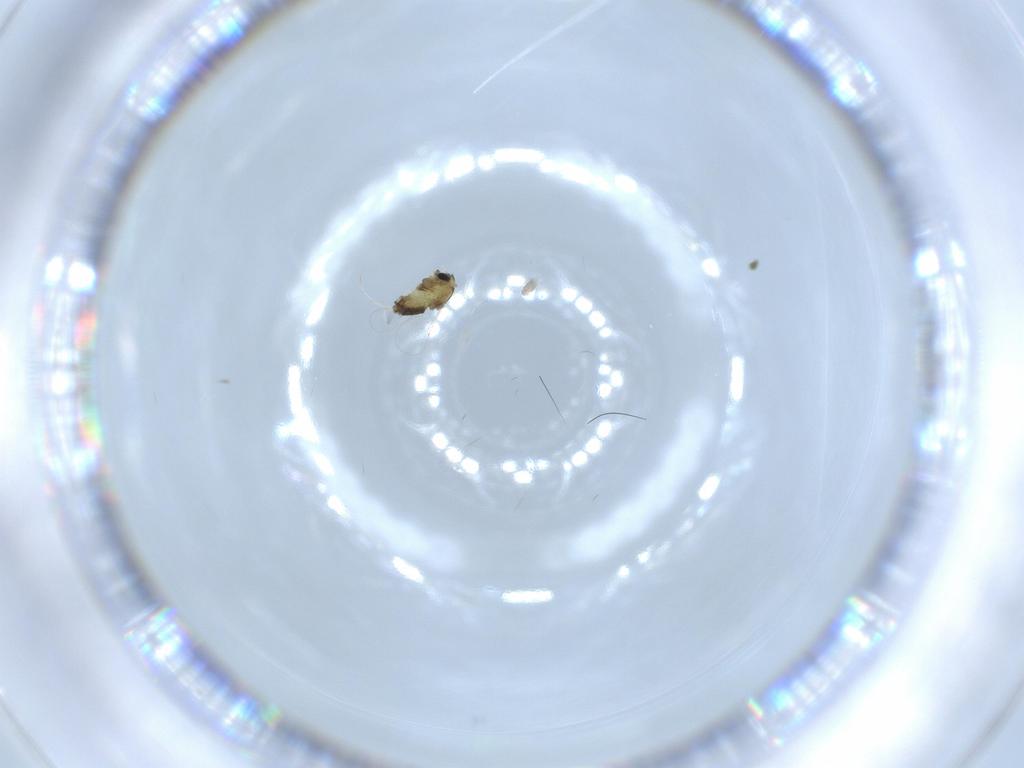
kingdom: Animalia
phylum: Arthropoda
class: Insecta
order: Diptera
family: Chironomidae
